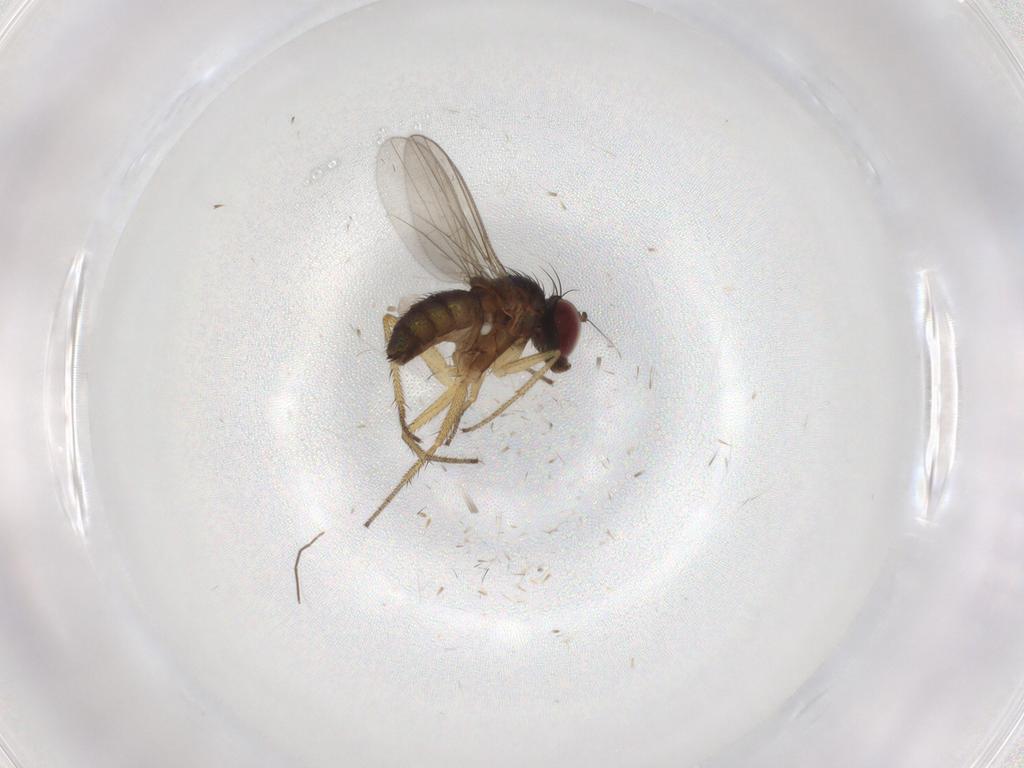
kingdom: Animalia
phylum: Arthropoda
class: Insecta
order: Diptera
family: Dolichopodidae
